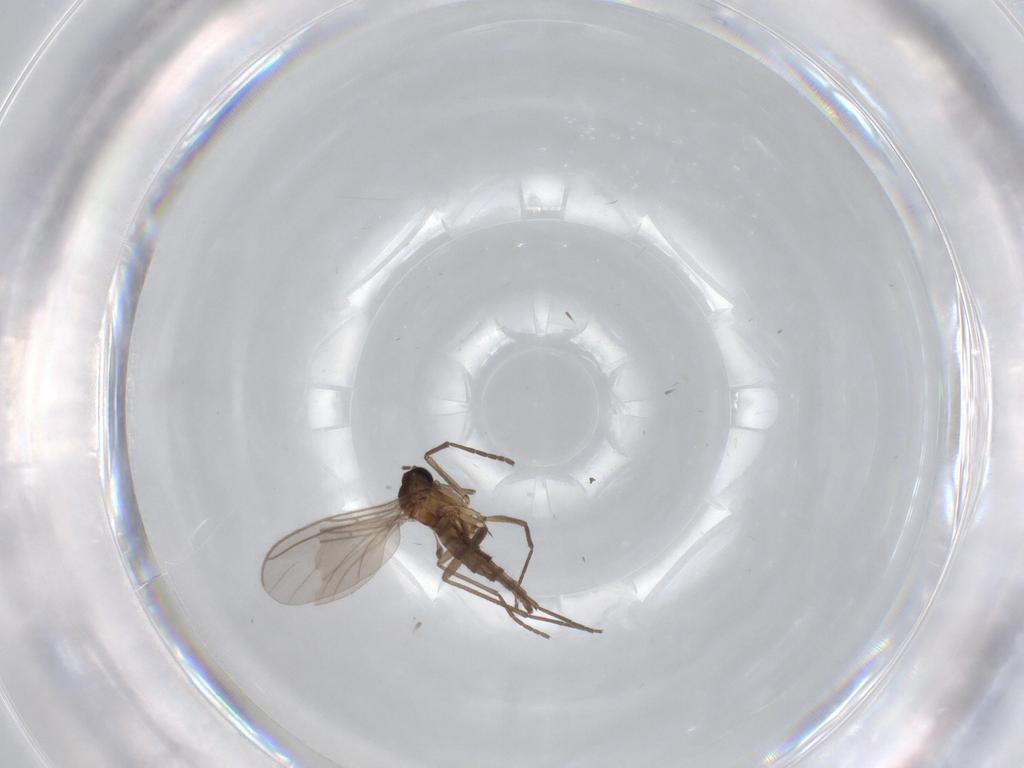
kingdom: Animalia
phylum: Arthropoda
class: Insecta
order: Diptera
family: Sciaridae
